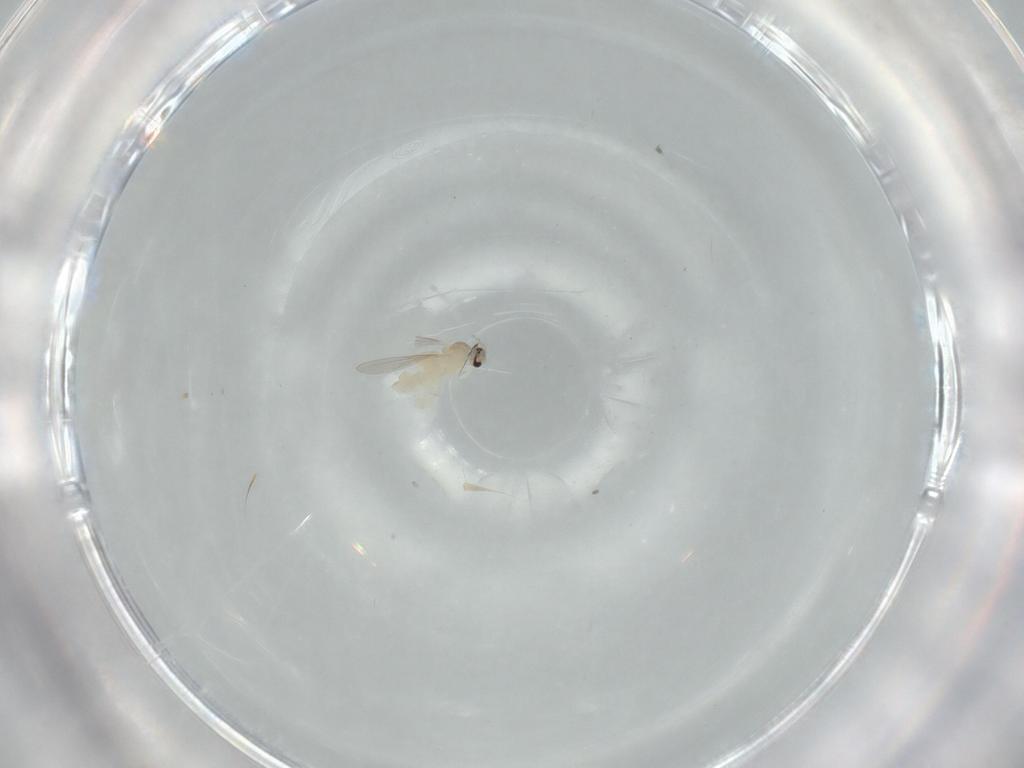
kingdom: Animalia
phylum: Arthropoda
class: Insecta
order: Diptera
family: Cecidomyiidae
